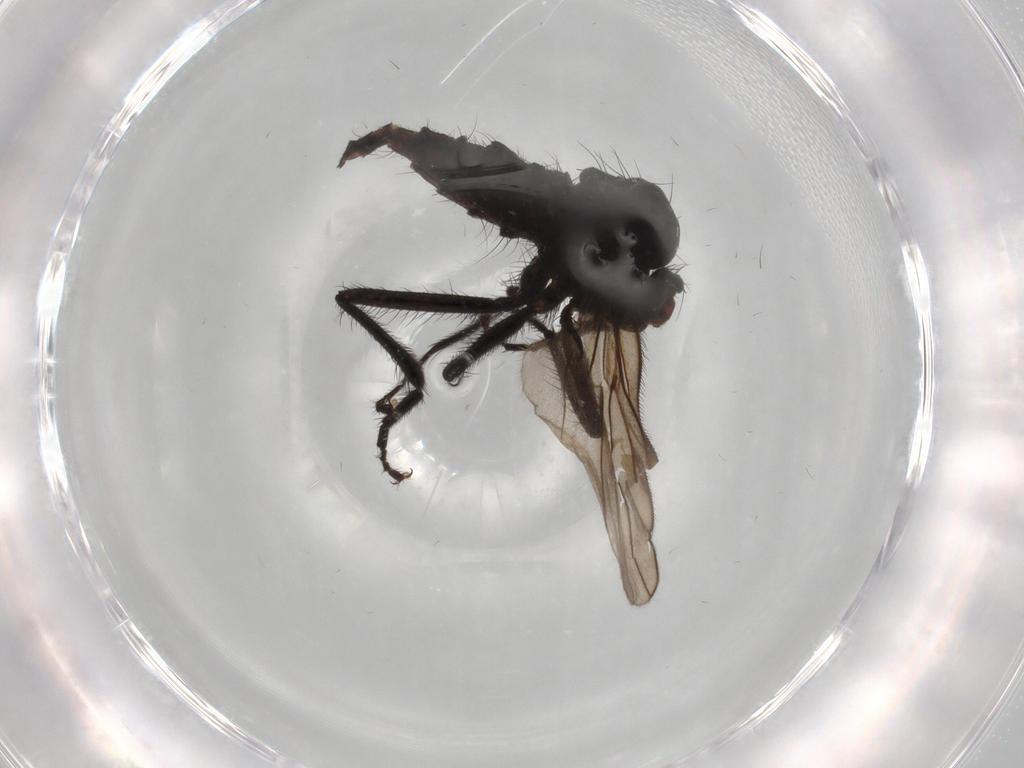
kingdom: Animalia
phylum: Arthropoda
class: Insecta
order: Diptera
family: Hybotidae
